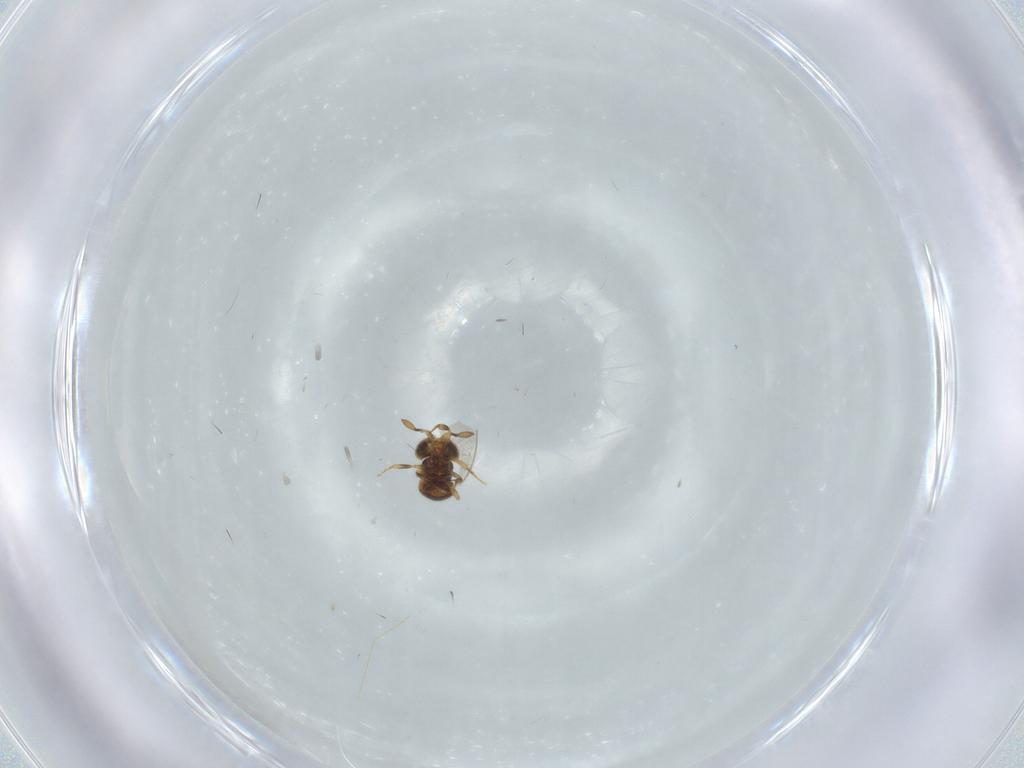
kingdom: Animalia
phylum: Arthropoda
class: Insecta
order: Hymenoptera
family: Scelionidae
